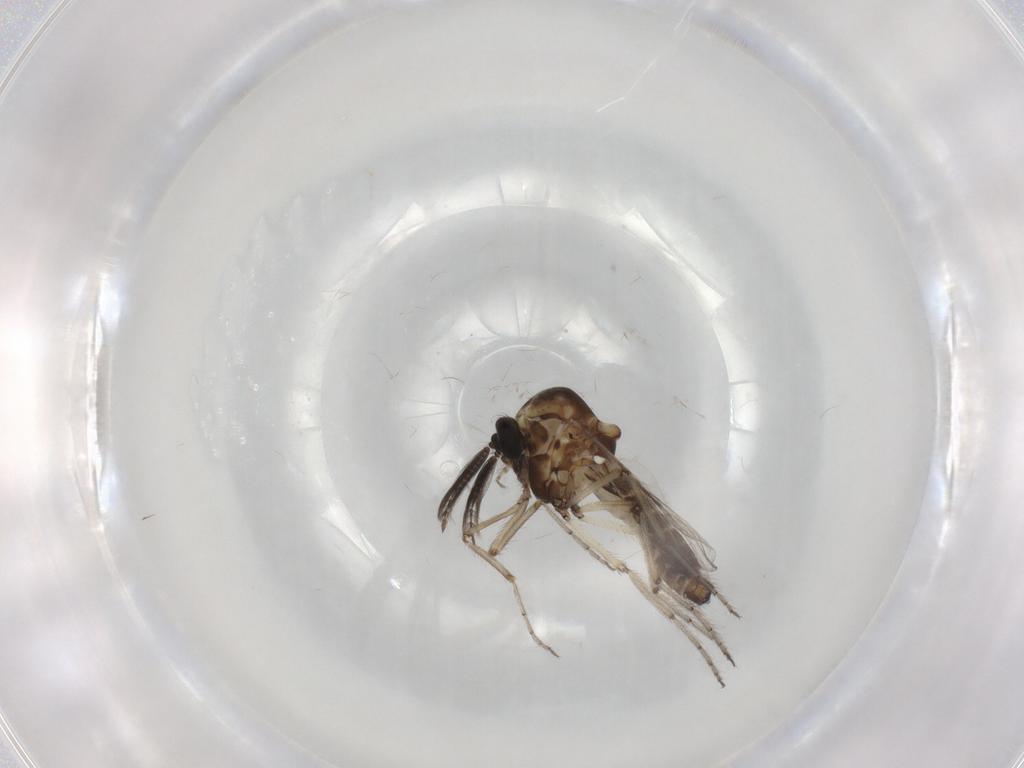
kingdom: Animalia
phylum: Arthropoda
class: Insecta
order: Diptera
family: Ceratopogonidae
